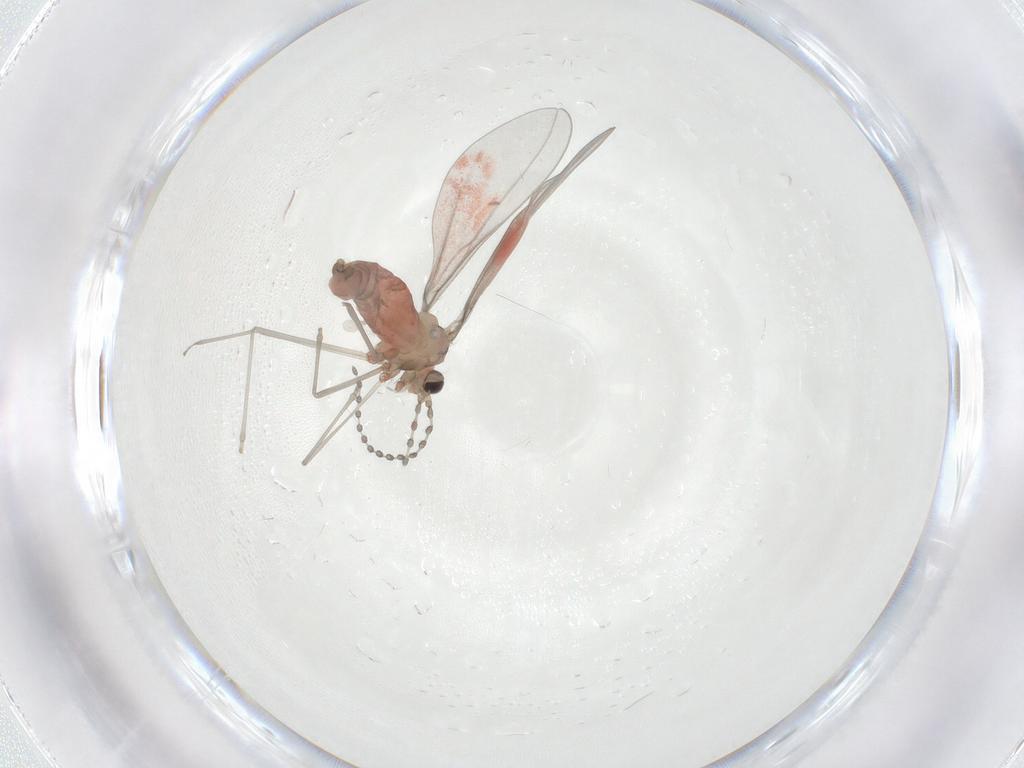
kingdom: Animalia
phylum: Arthropoda
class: Insecta
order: Diptera
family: Cecidomyiidae
